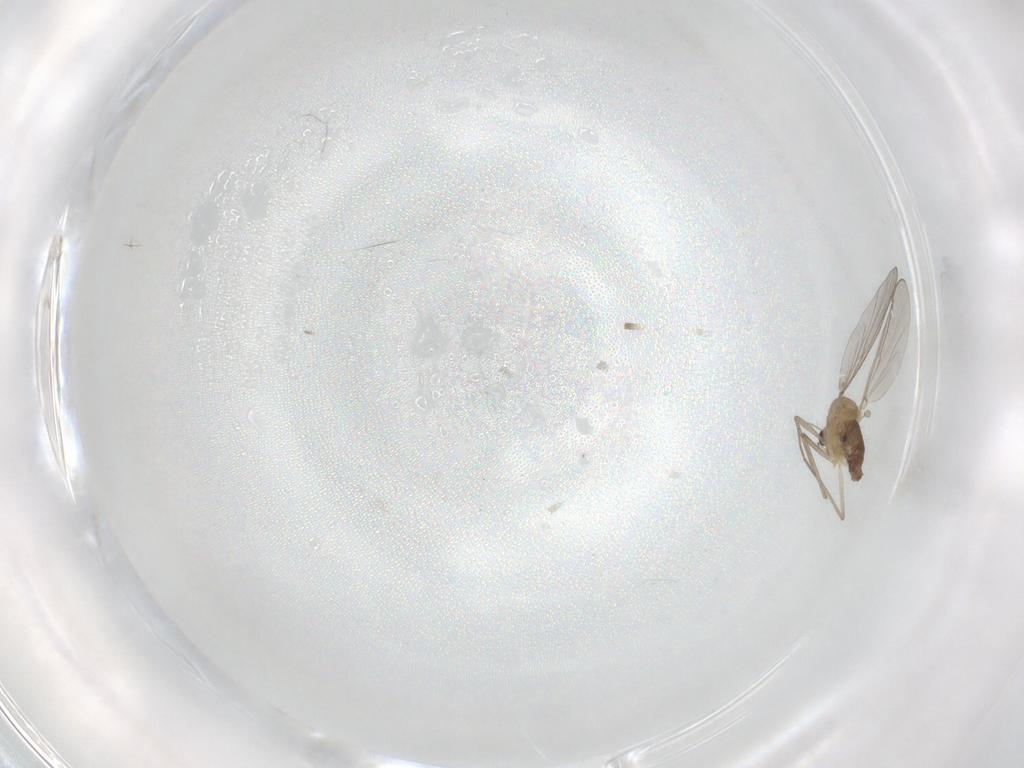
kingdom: Animalia
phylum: Arthropoda
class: Insecta
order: Diptera
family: Chironomidae
